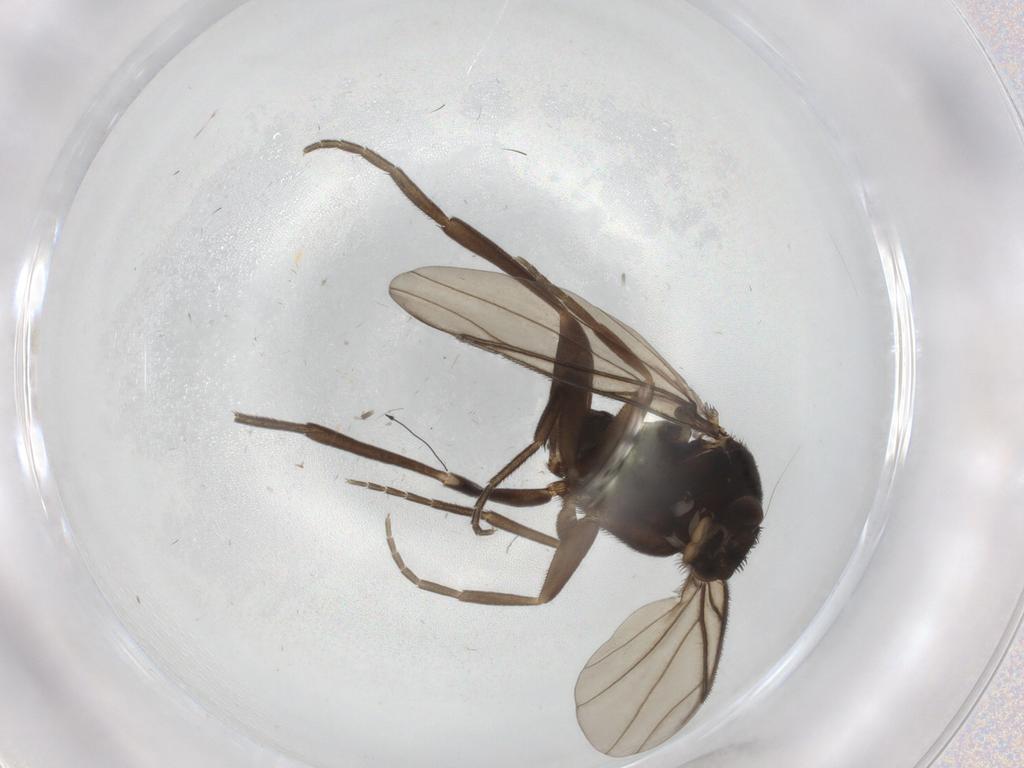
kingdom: Animalia
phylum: Arthropoda
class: Insecta
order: Diptera
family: Phoridae
